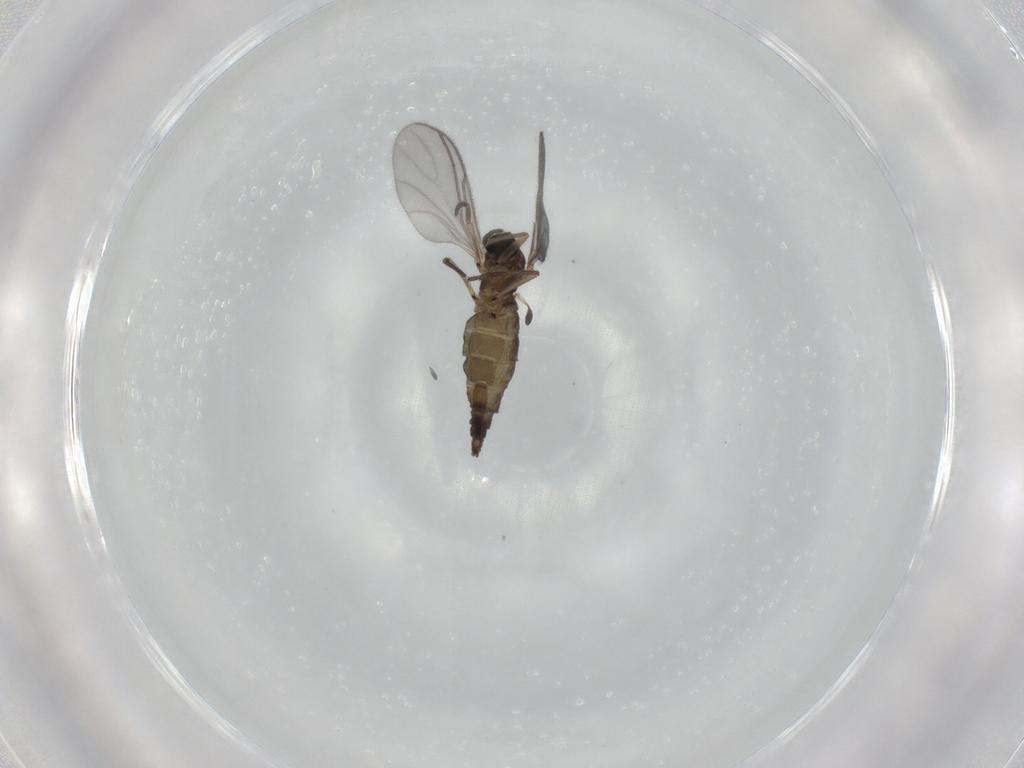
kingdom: Animalia
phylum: Arthropoda
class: Insecta
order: Diptera
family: Sciaridae
